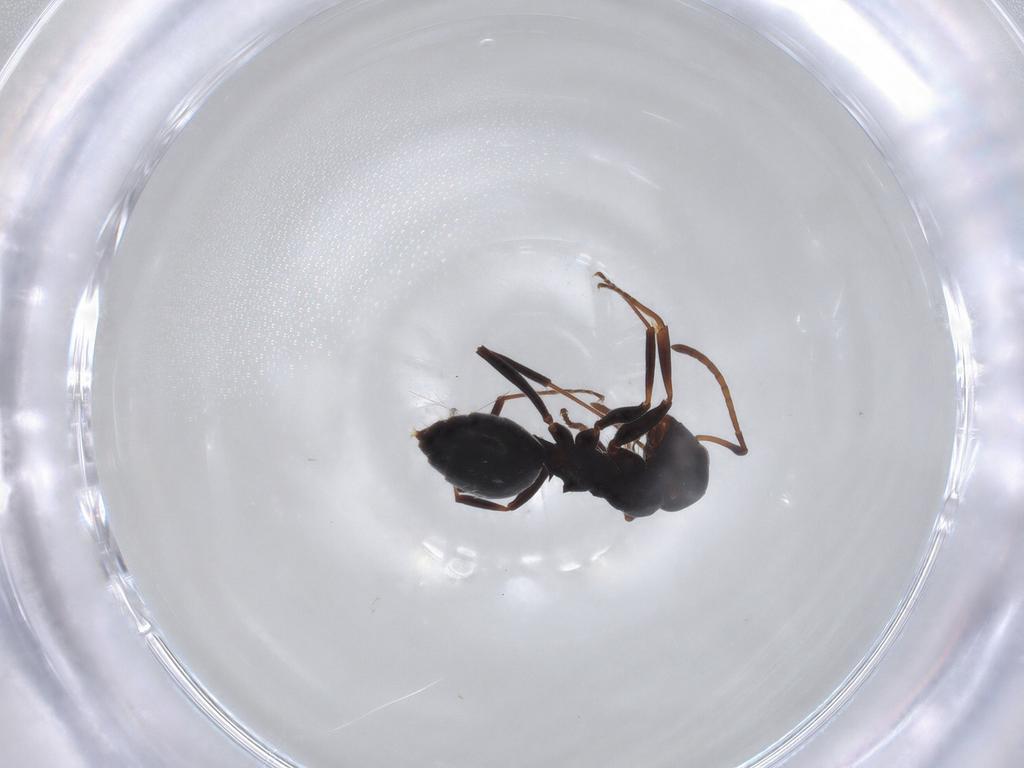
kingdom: Animalia
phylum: Arthropoda
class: Insecta
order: Hymenoptera
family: Formicidae
